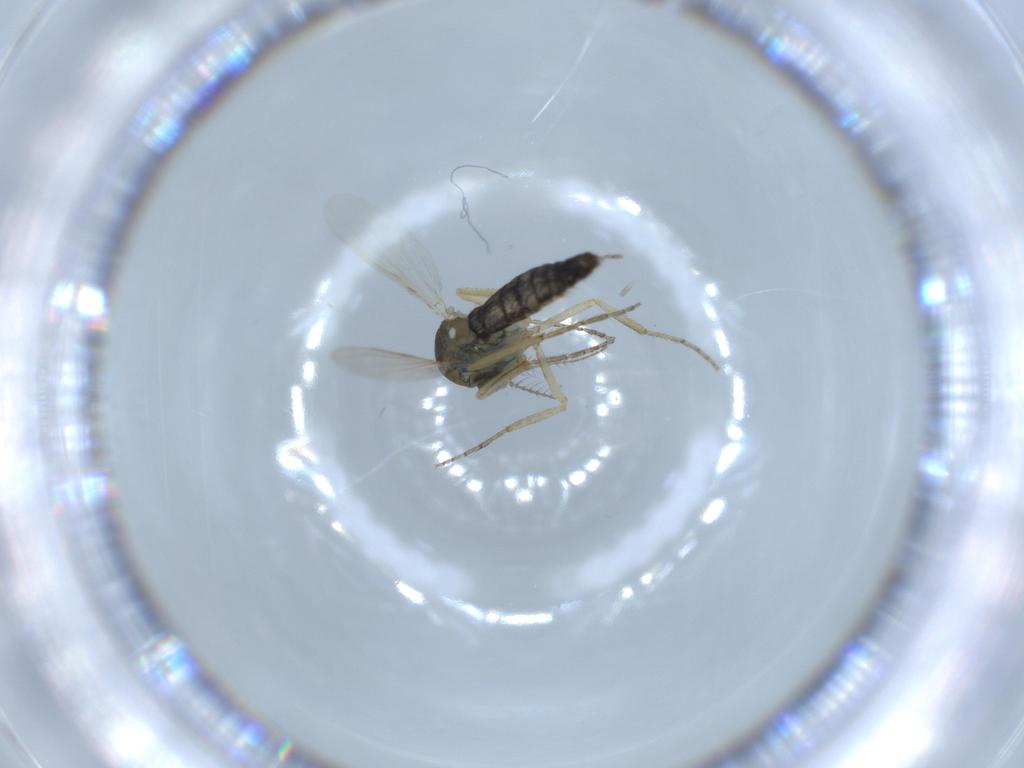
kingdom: Animalia
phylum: Arthropoda
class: Insecta
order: Diptera
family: Ceratopogonidae
